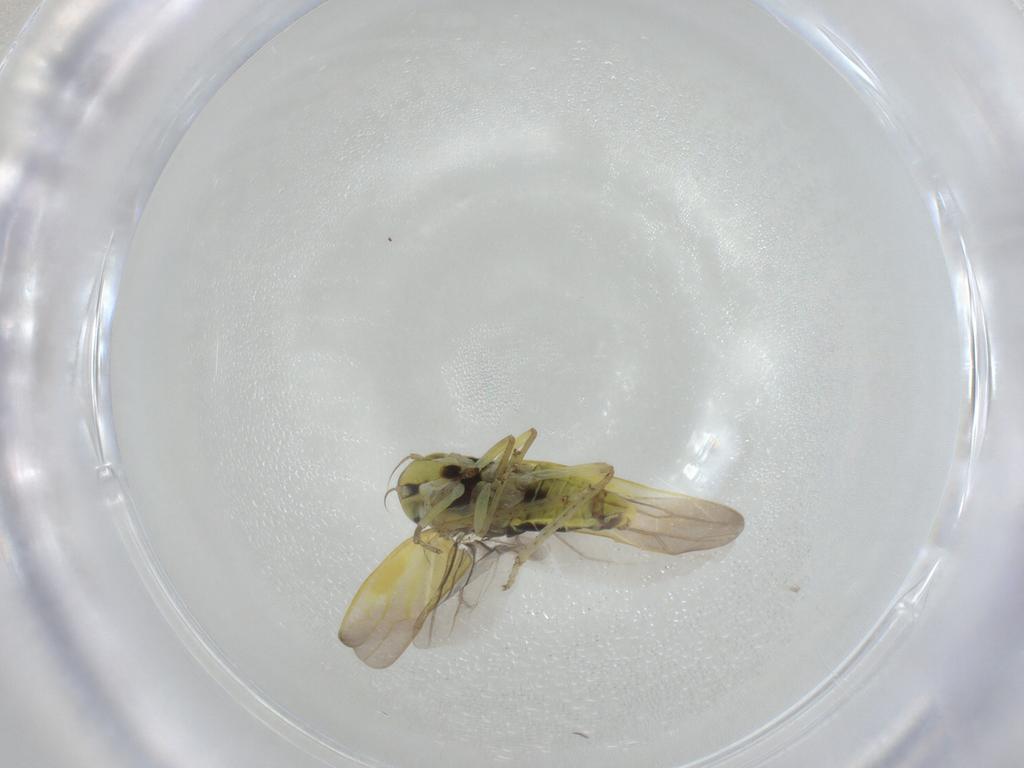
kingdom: Animalia
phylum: Arthropoda
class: Insecta
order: Hemiptera
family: Cicadellidae
